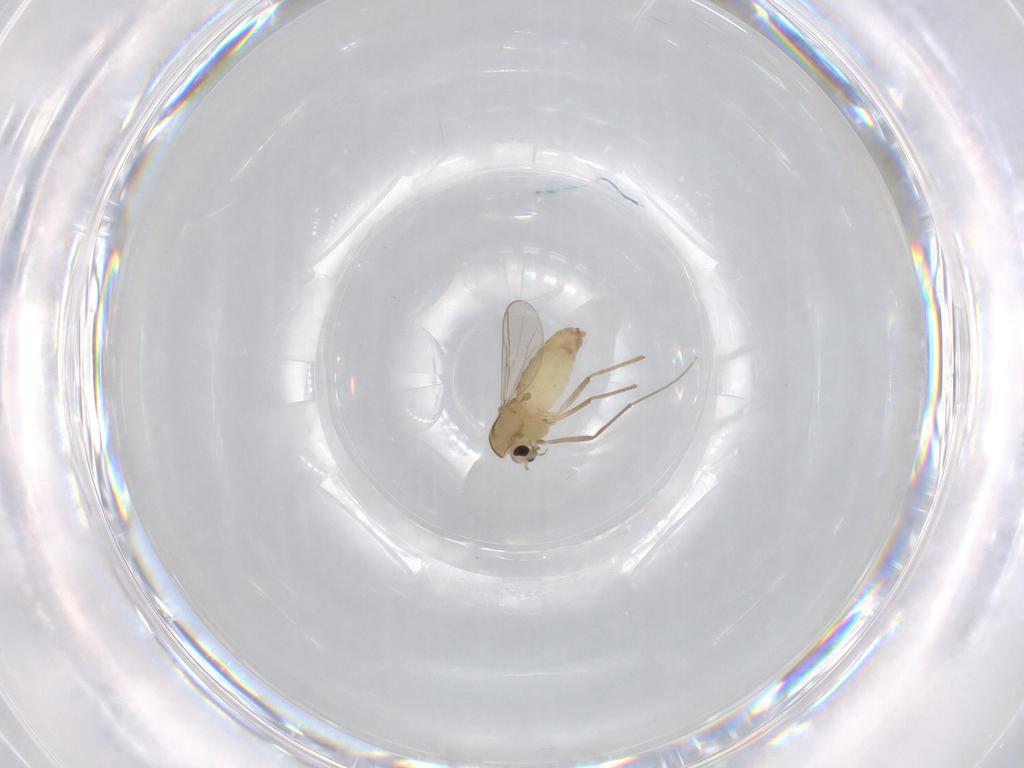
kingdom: Animalia
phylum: Arthropoda
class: Insecta
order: Diptera
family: Chironomidae
